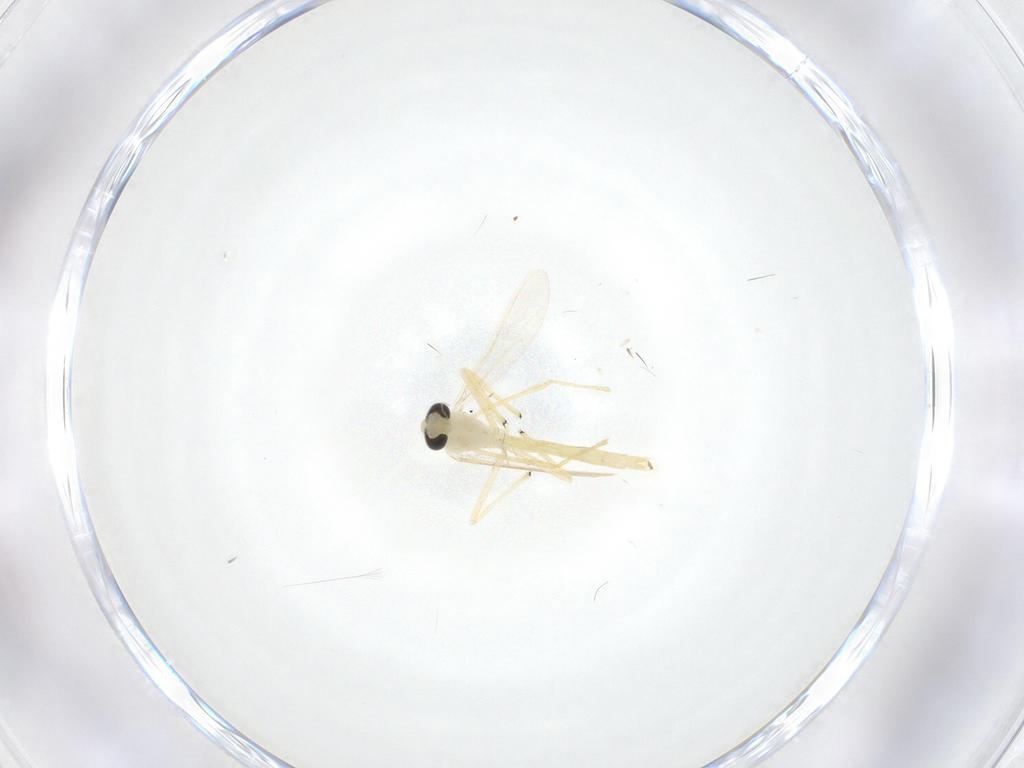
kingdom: Animalia
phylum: Arthropoda
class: Insecta
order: Diptera
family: Chironomidae
